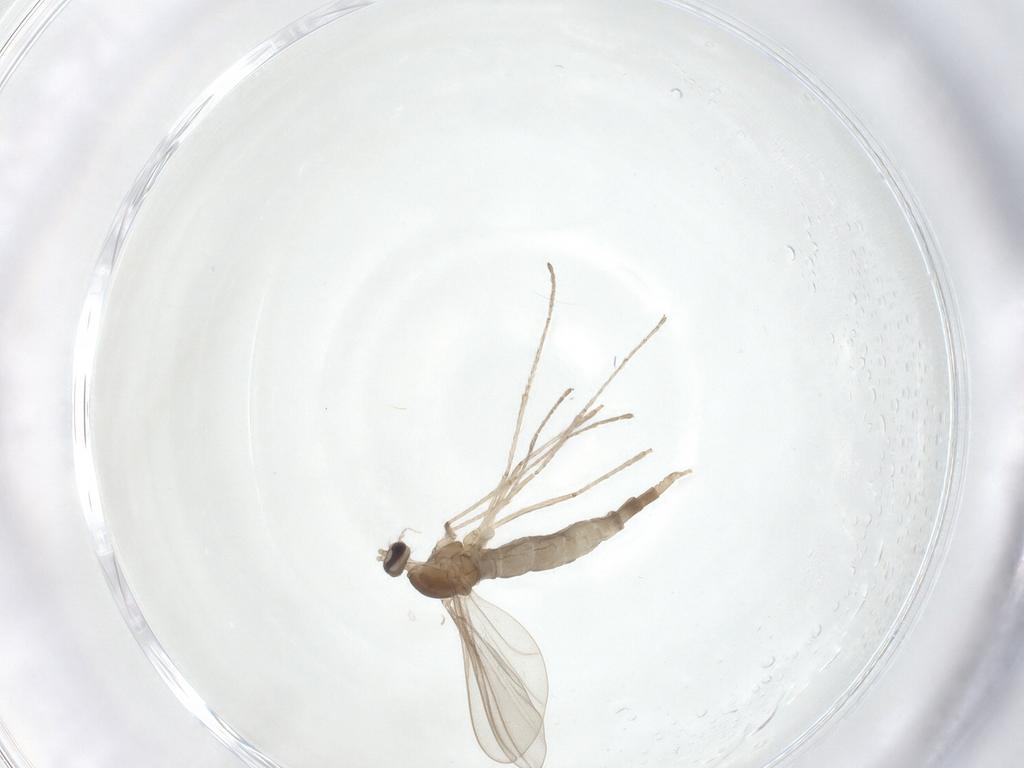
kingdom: Animalia
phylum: Arthropoda
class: Insecta
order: Diptera
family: Cecidomyiidae
